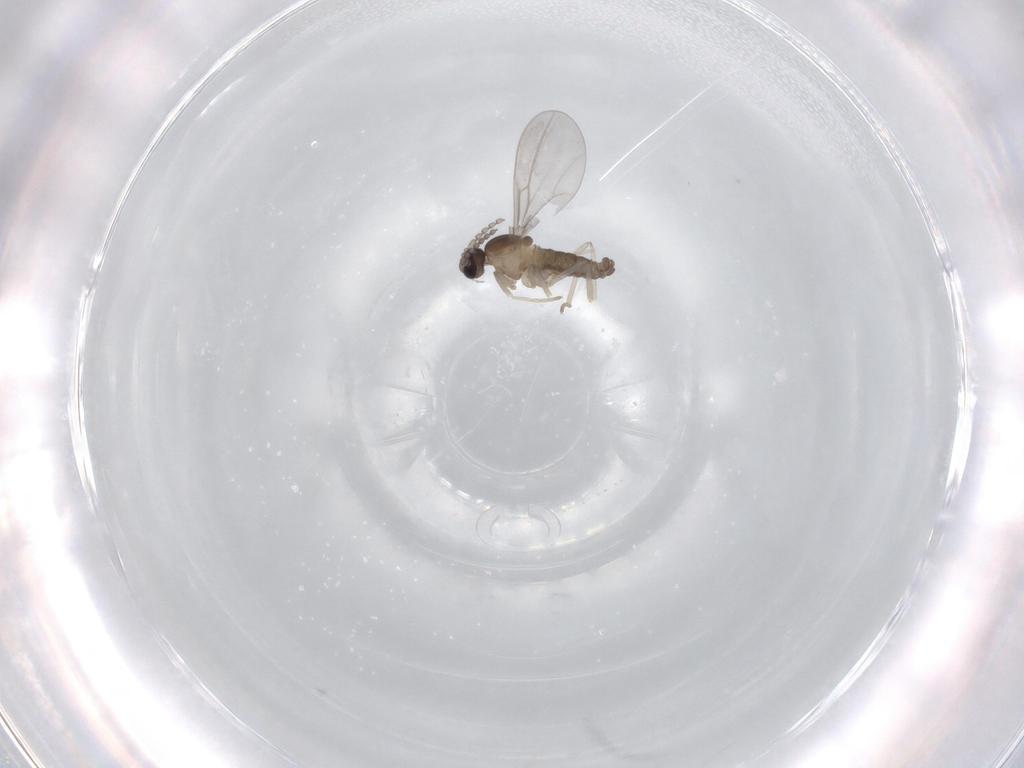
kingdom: Animalia
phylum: Arthropoda
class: Insecta
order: Diptera
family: Cecidomyiidae
